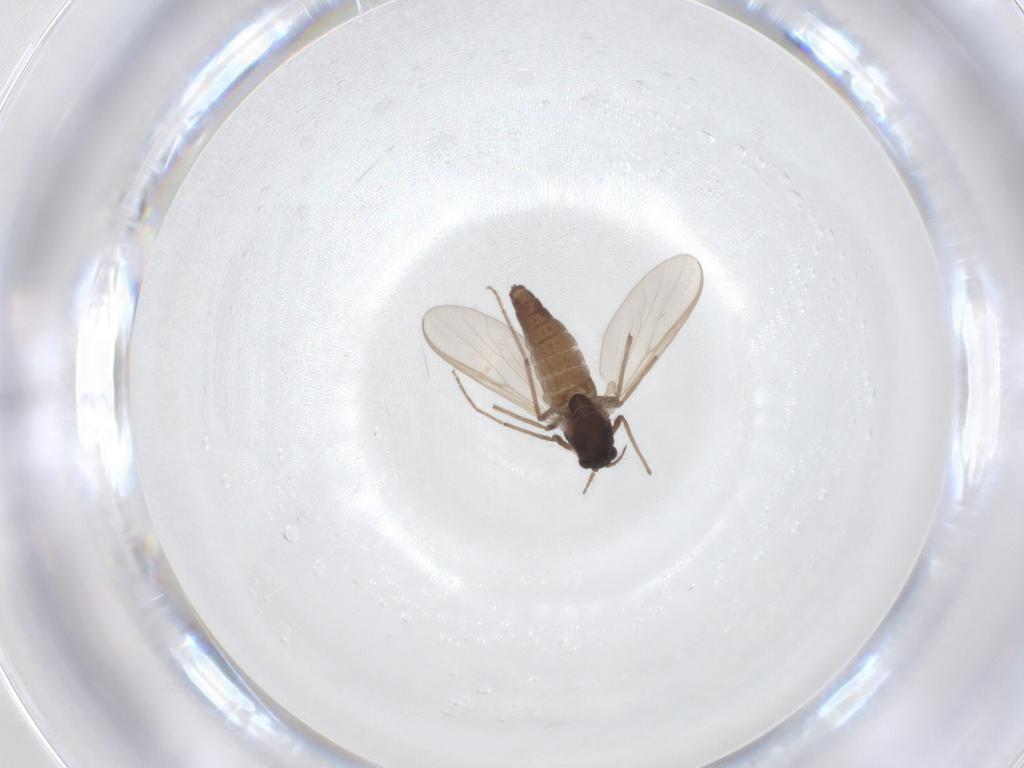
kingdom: Animalia
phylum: Arthropoda
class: Insecta
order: Diptera
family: Chironomidae
